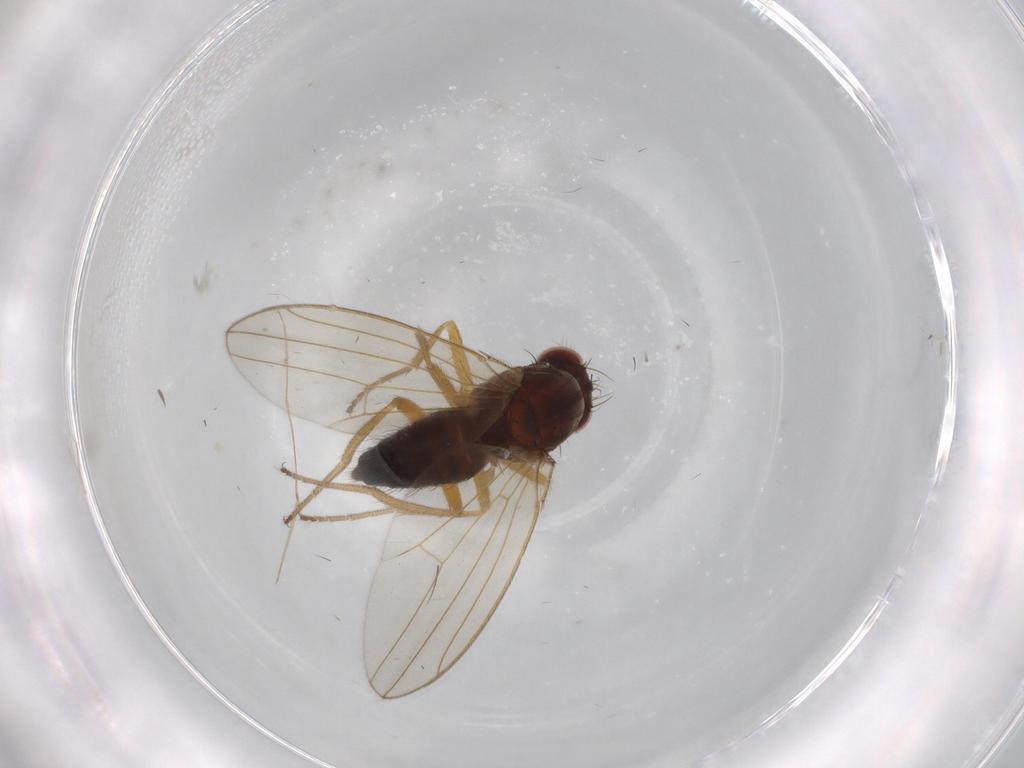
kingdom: Animalia
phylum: Arthropoda
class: Insecta
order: Diptera
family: Drosophilidae
